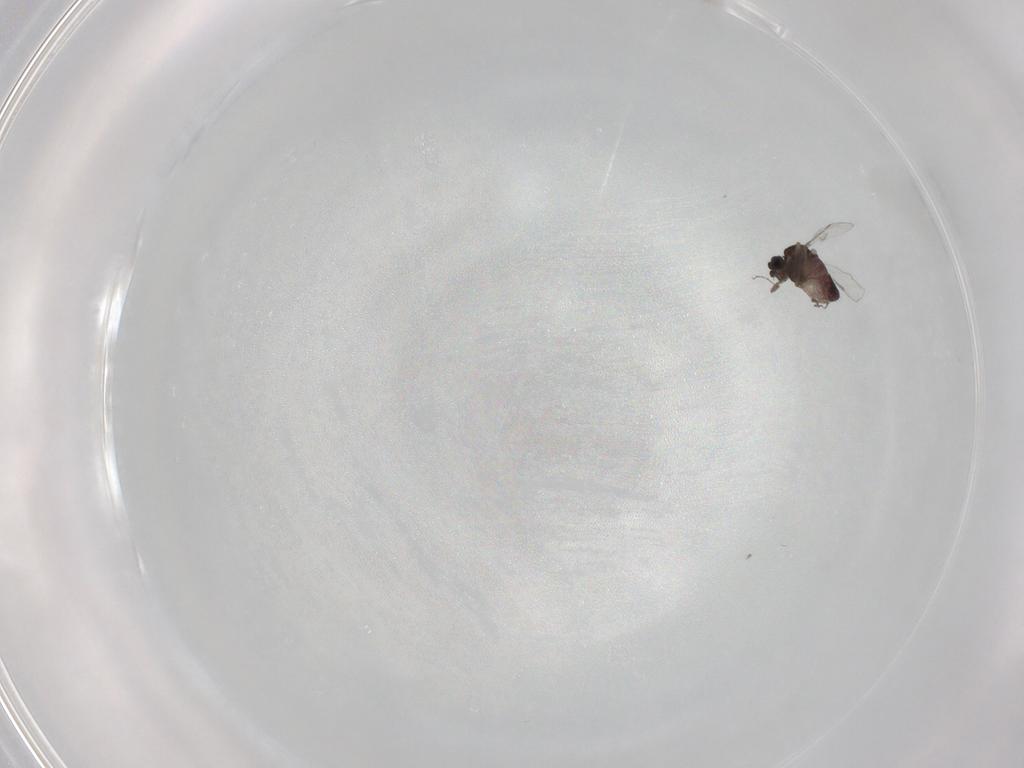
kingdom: Animalia
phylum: Arthropoda
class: Insecta
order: Diptera
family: Ceratopogonidae
